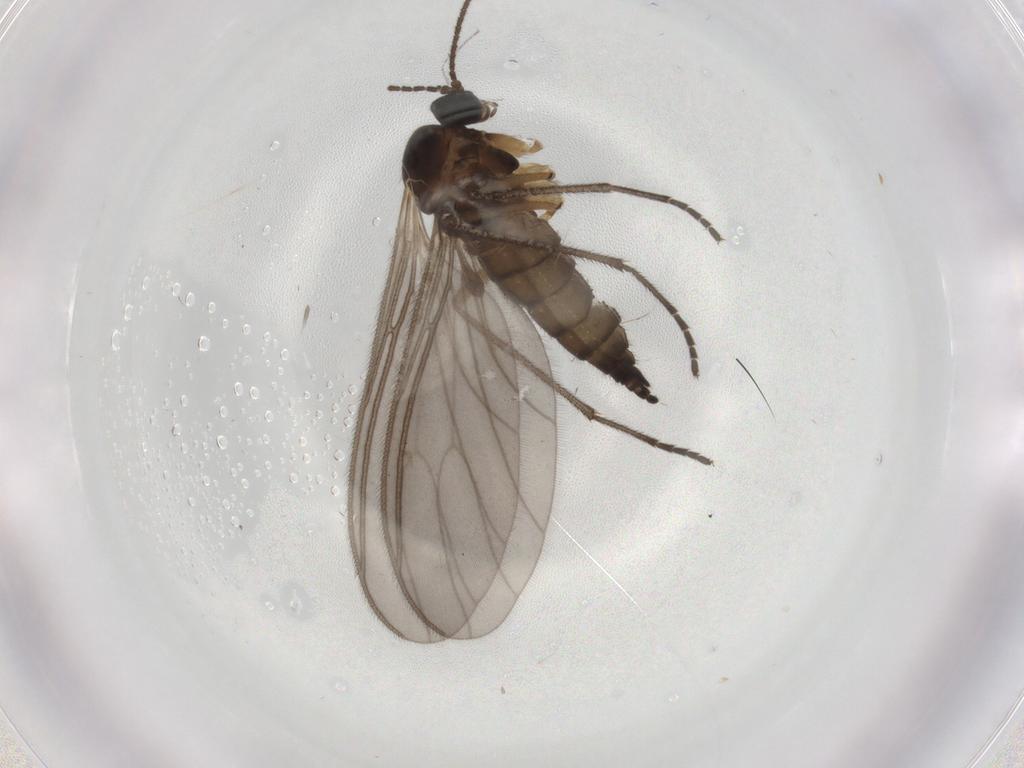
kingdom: Animalia
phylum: Arthropoda
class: Insecta
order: Diptera
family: Sciaridae
